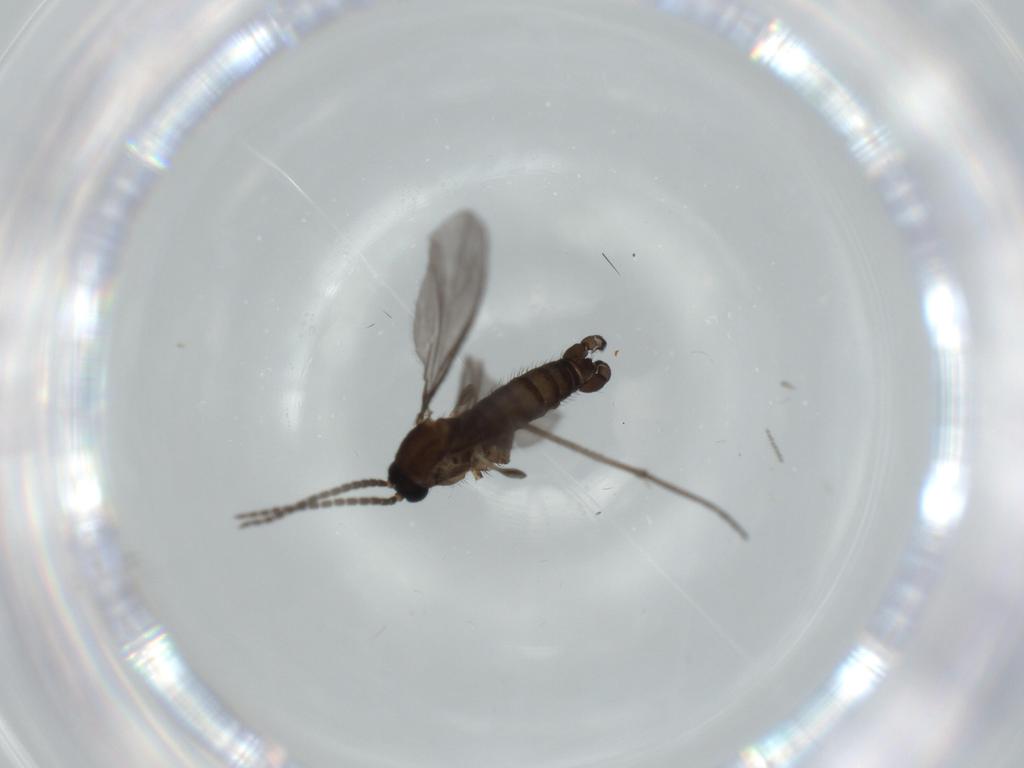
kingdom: Animalia
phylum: Arthropoda
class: Insecta
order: Diptera
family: Sciaridae
